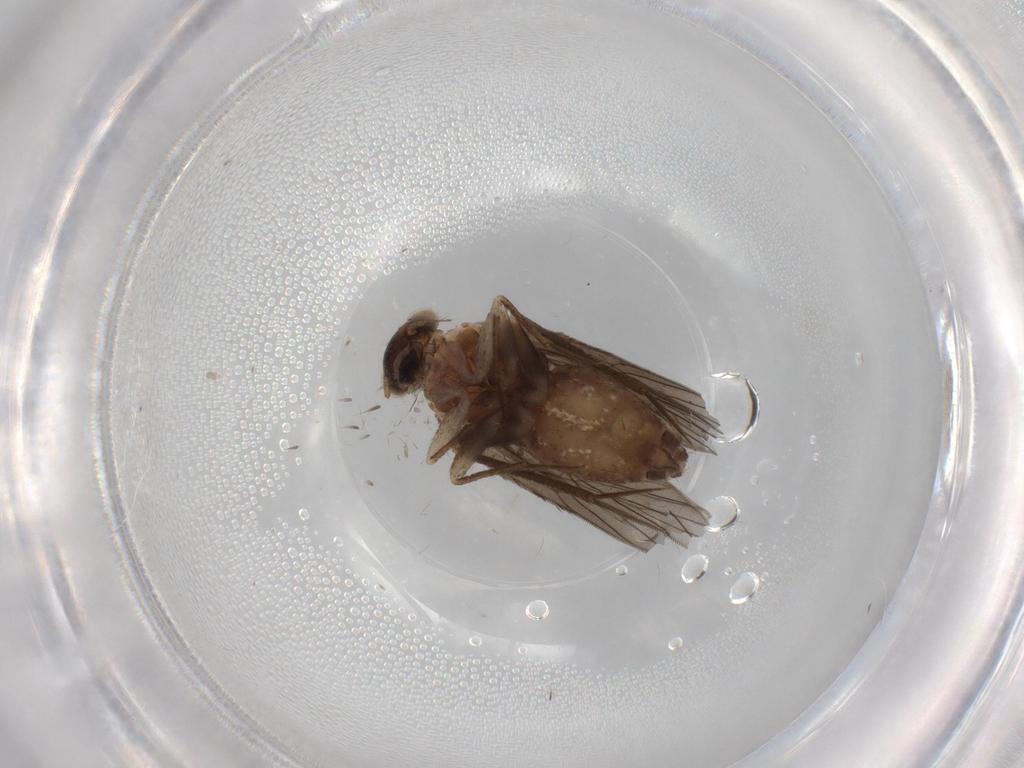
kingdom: Animalia
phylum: Arthropoda
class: Insecta
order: Psocodea
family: Lepidopsocidae
